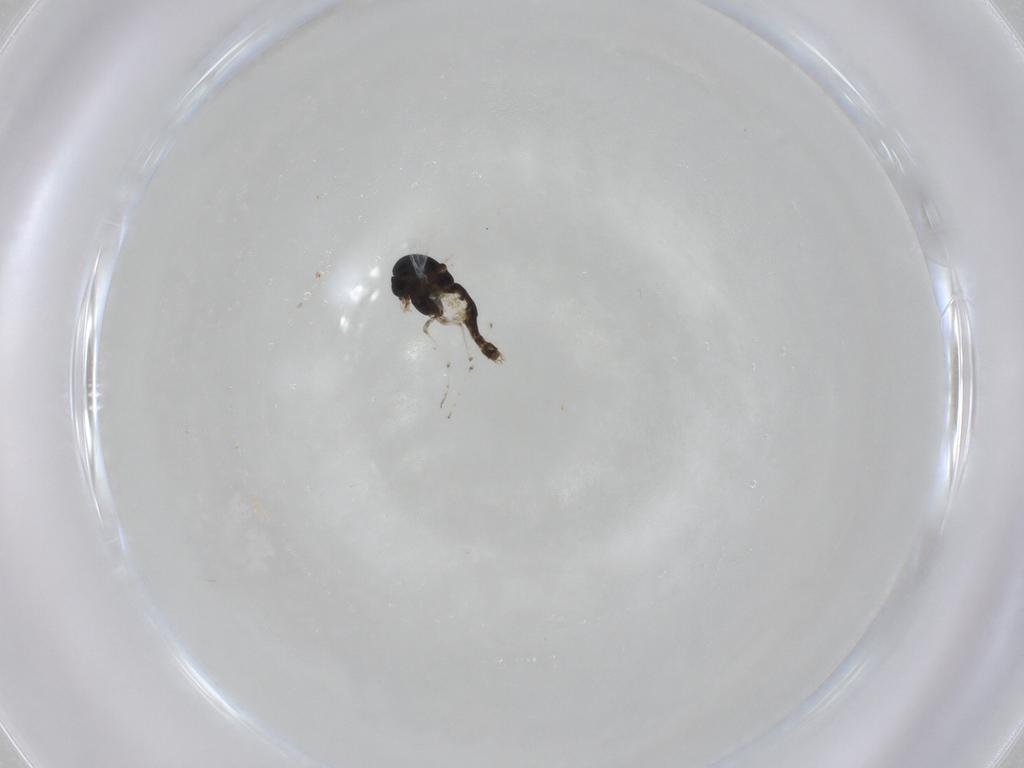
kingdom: Animalia
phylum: Arthropoda
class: Insecta
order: Diptera
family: Chironomidae
